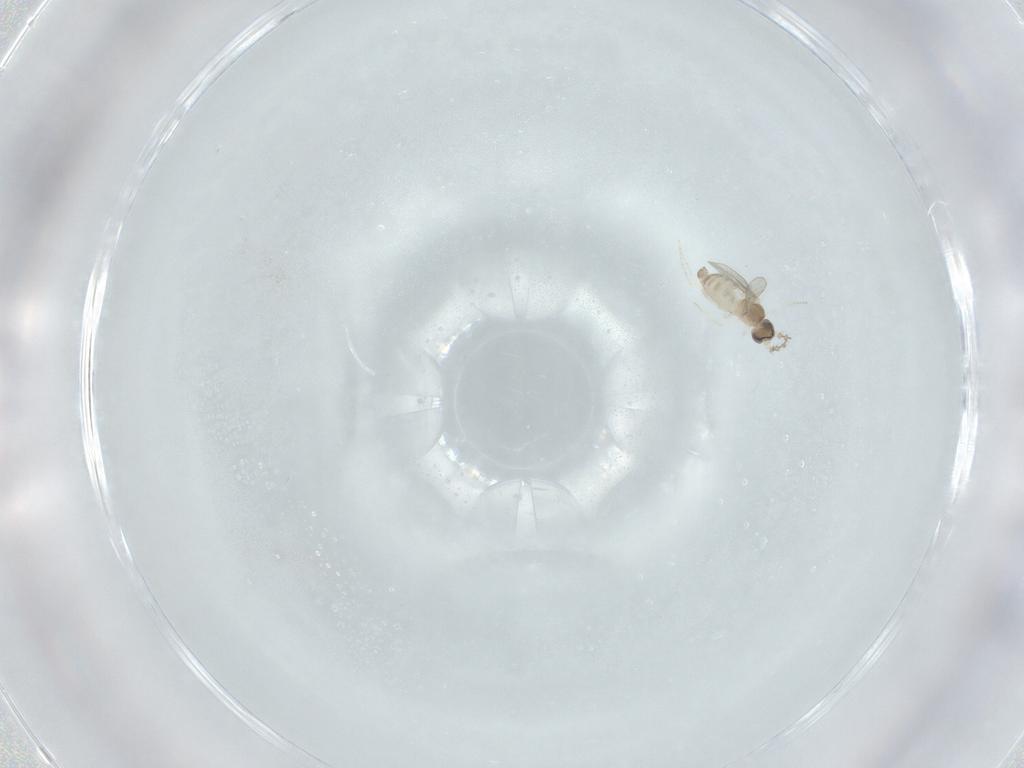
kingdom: Animalia
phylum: Arthropoda
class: Insecta
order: Diptera
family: Cecidomyiidae
